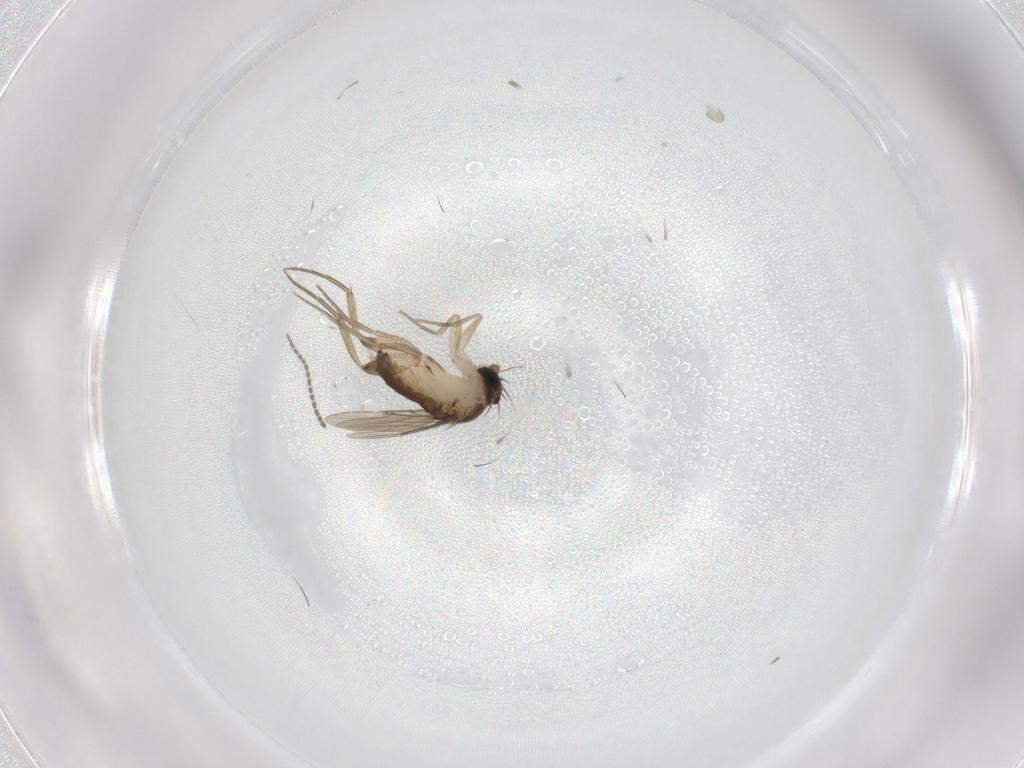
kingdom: Animalia
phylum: Arthropoda
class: Insecta
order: Diptera
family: Phoridae
